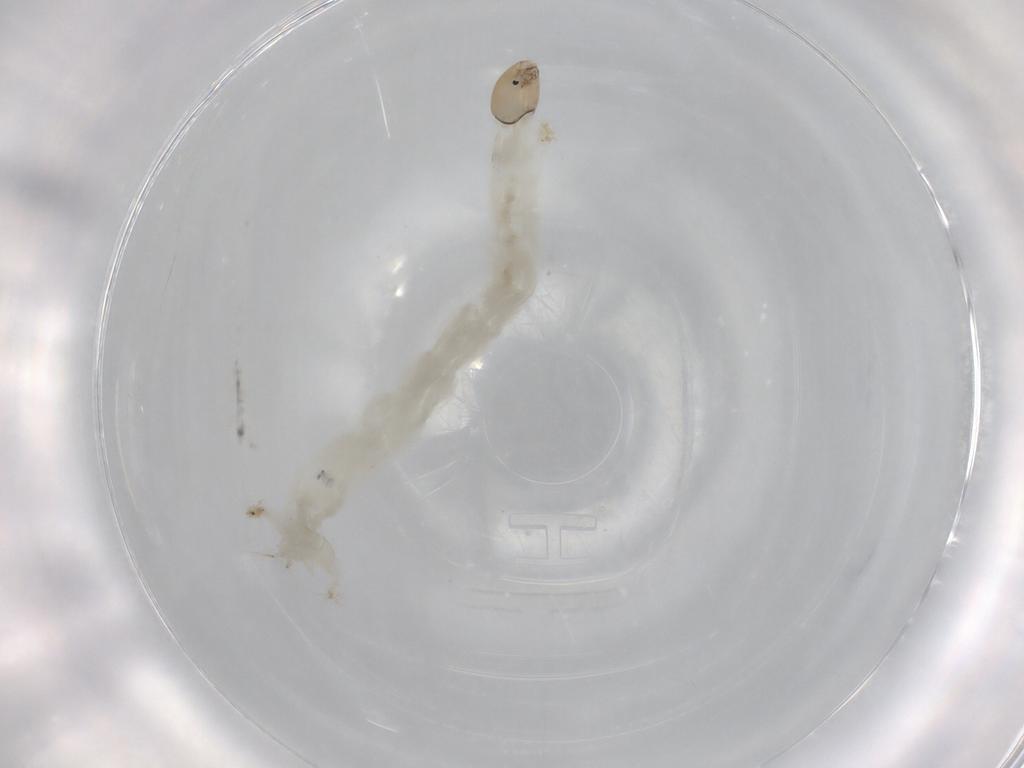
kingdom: Animalia
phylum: Arthropoda
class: Insecta
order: Diptera
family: Chironomidae
